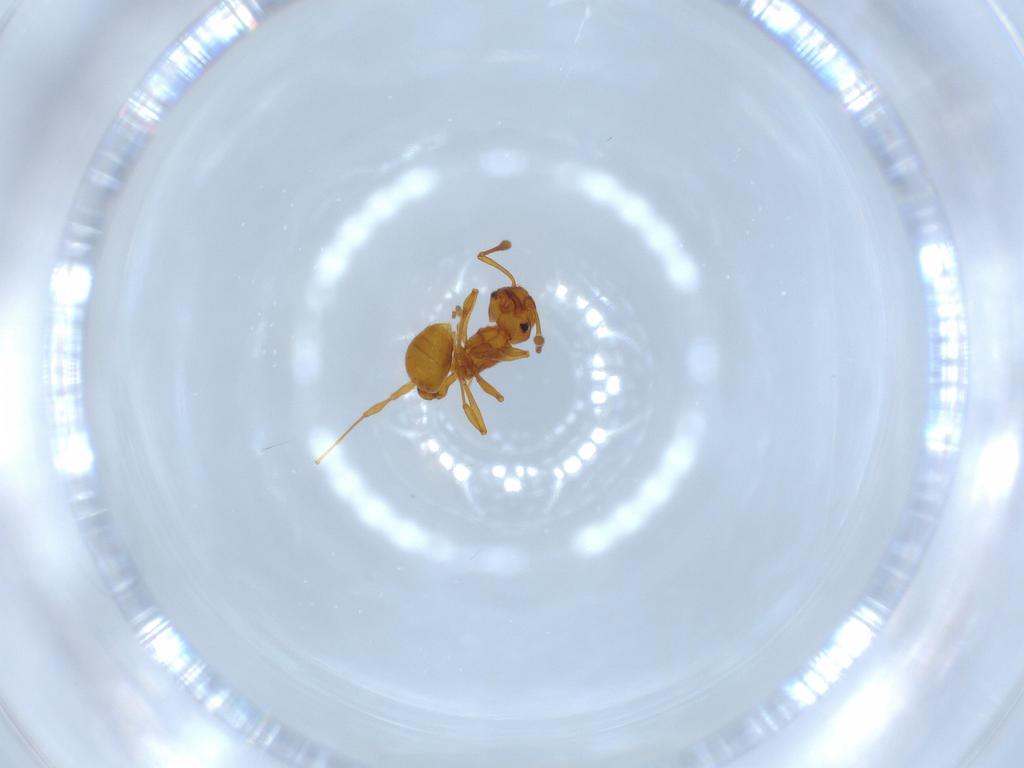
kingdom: Animalia
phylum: Arthropoda
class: Insecta
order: Hymenoptera
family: Formicidae
